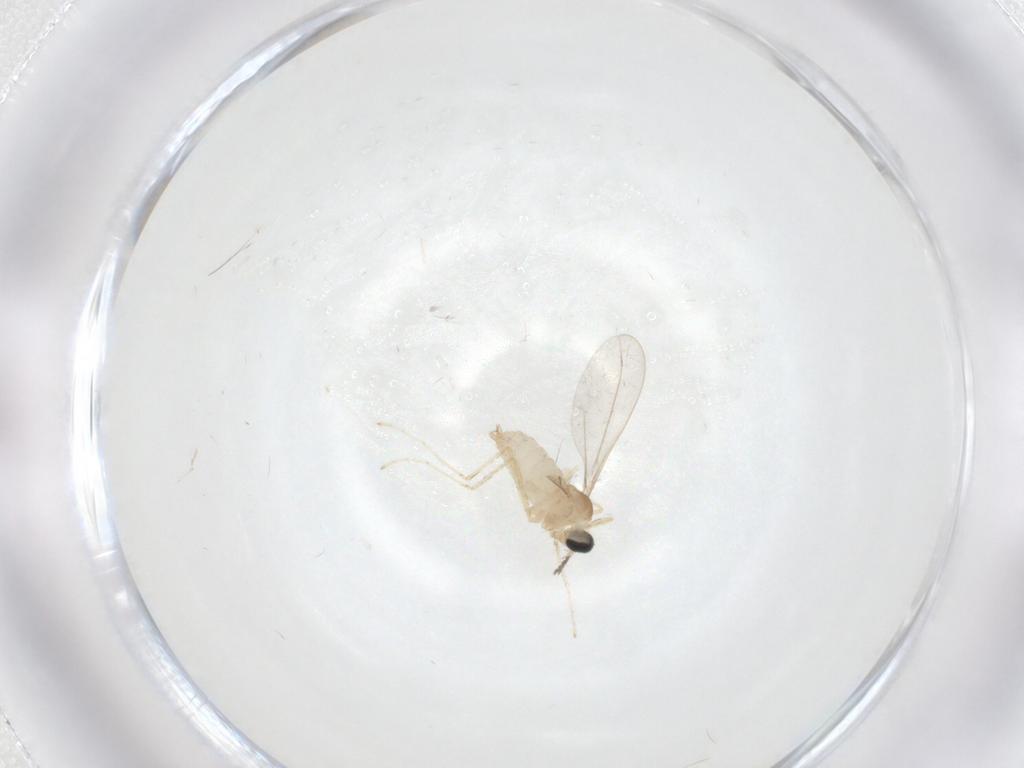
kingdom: Animalia
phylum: Arthropoda
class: Insecta
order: Diptera
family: Cecidomyiidae
